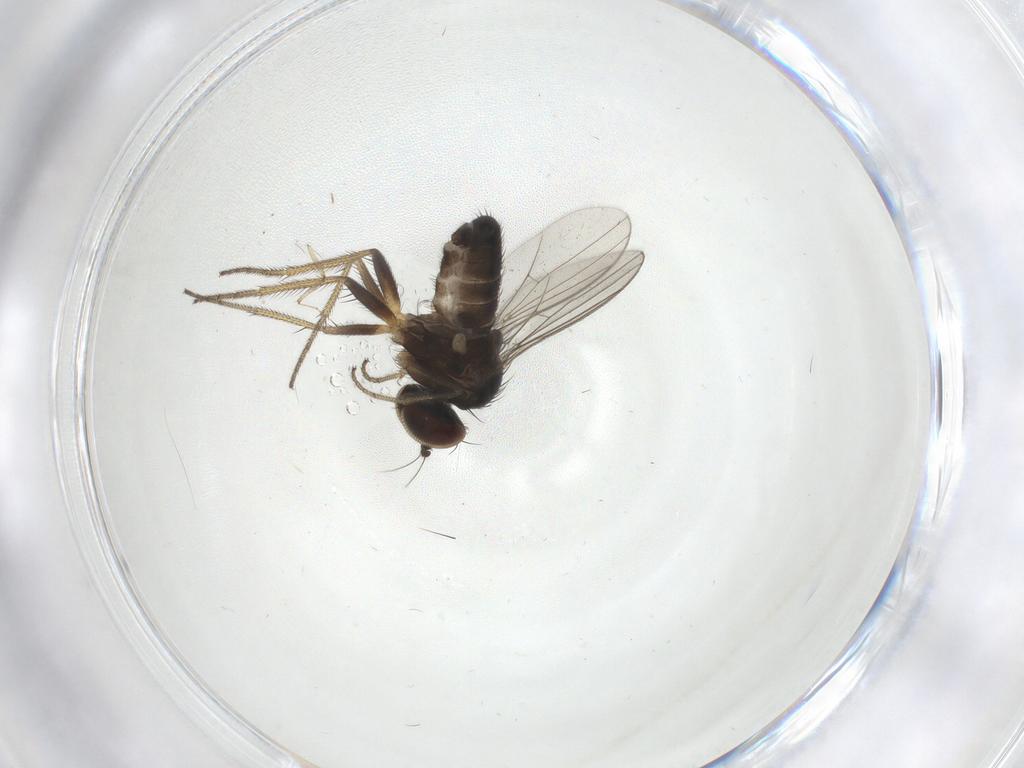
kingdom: Animalia
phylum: Arthropoda
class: Insecta
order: Diptera
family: Dolichopodidae
